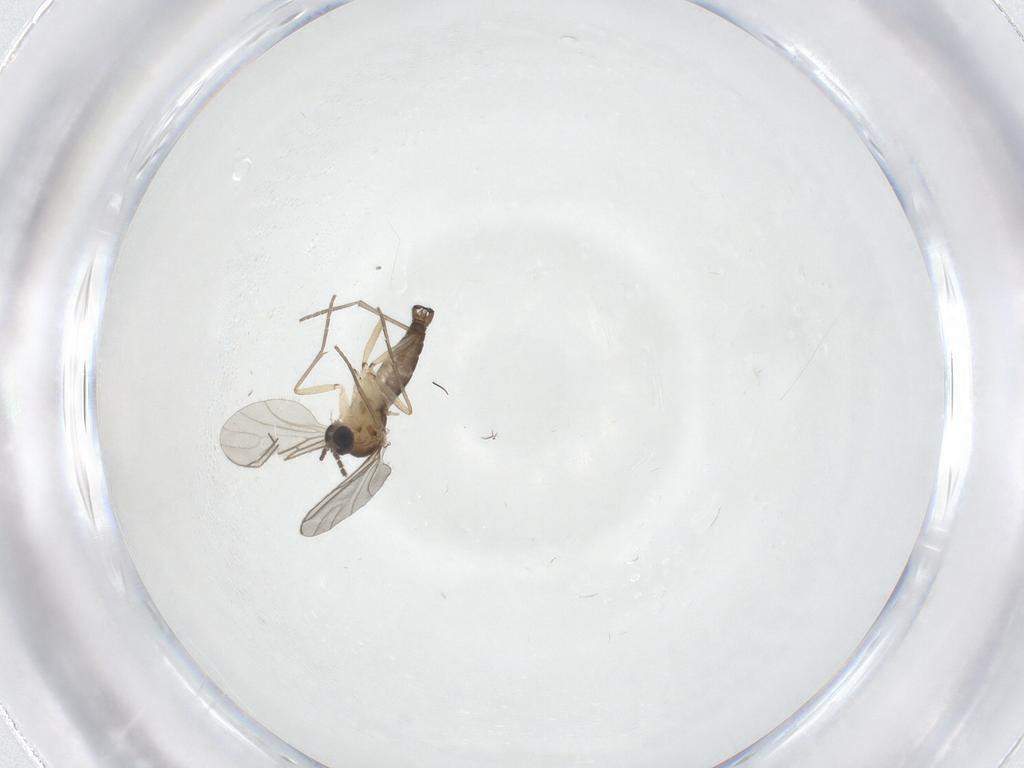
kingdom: Animalia
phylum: Arthropoda
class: Insecta
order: Diptera
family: Sciaridae
